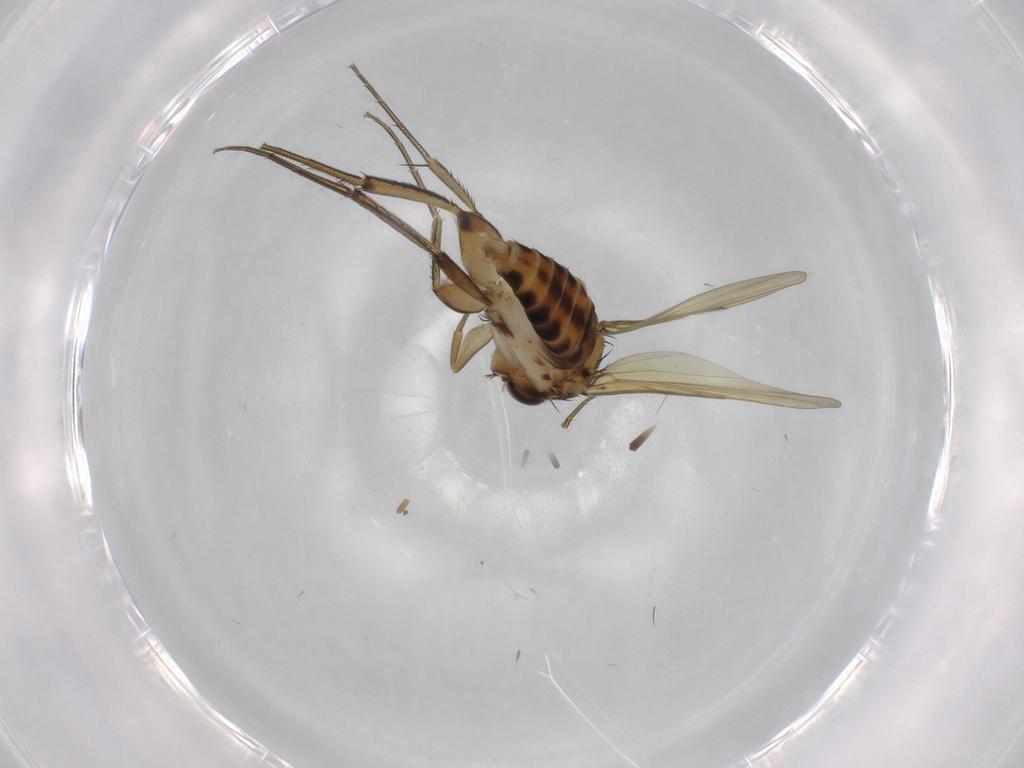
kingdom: Animalia
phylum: Arthropoda
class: Insecta
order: Diptera
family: Phoridae
